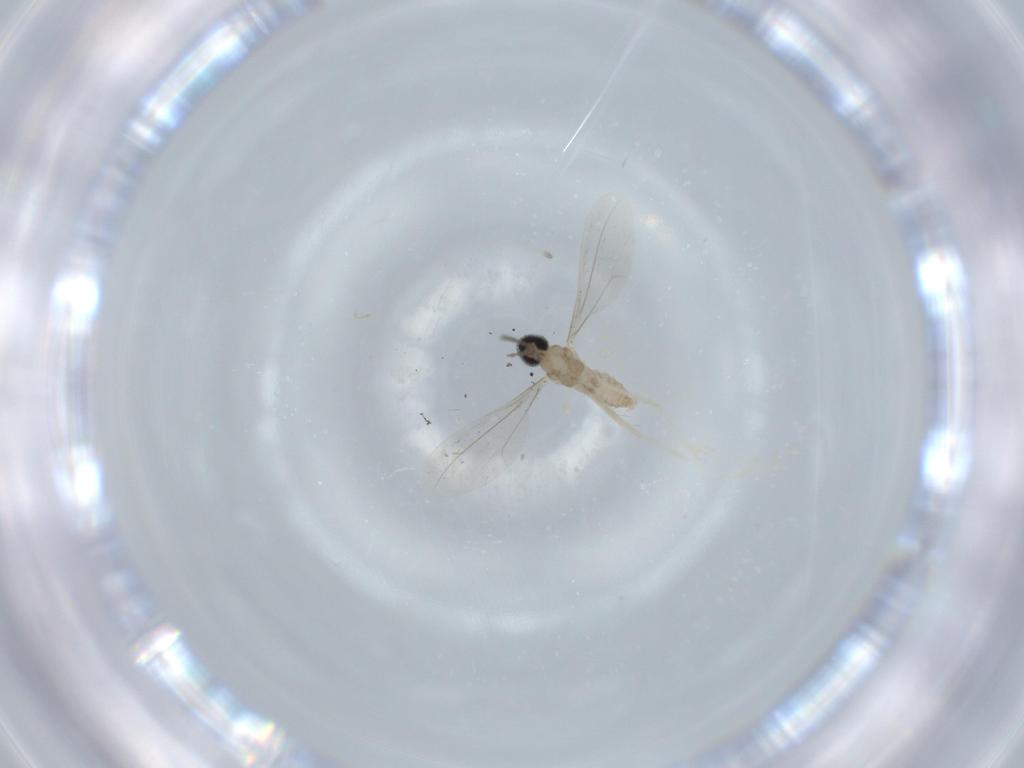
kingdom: Animalia
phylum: Arthropoda
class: Insecta
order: Diptera
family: Cecidomyiidae
